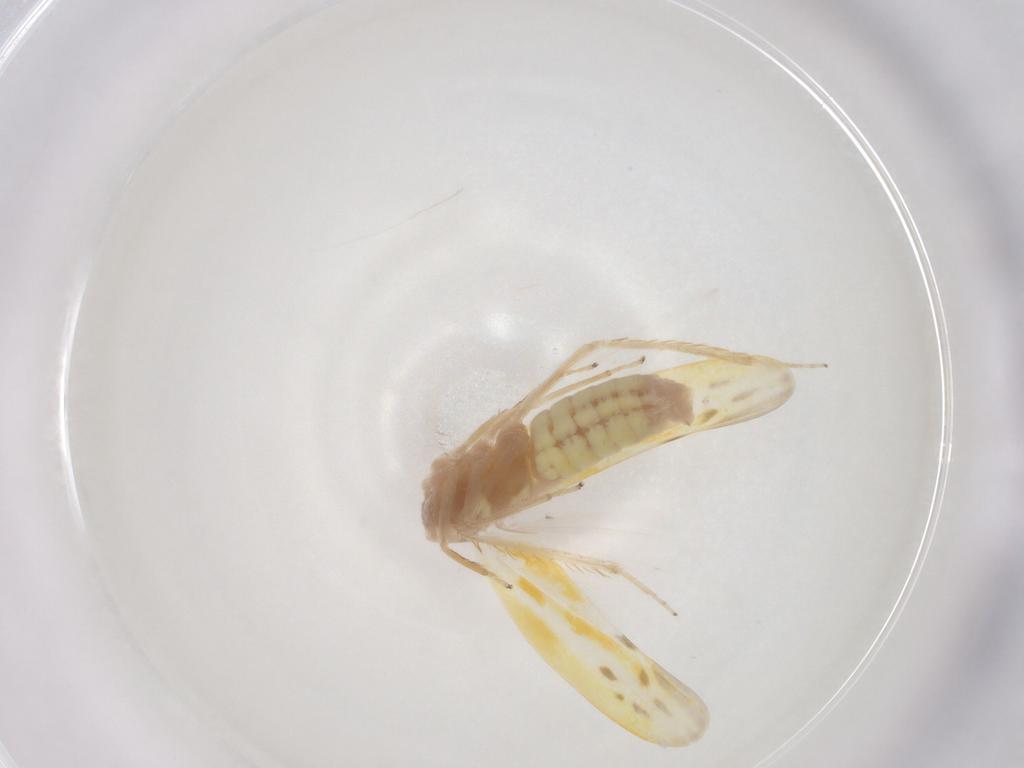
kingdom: Animalia
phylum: Arthropoda
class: Insecta
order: Hemiptera
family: Cicadellidae
